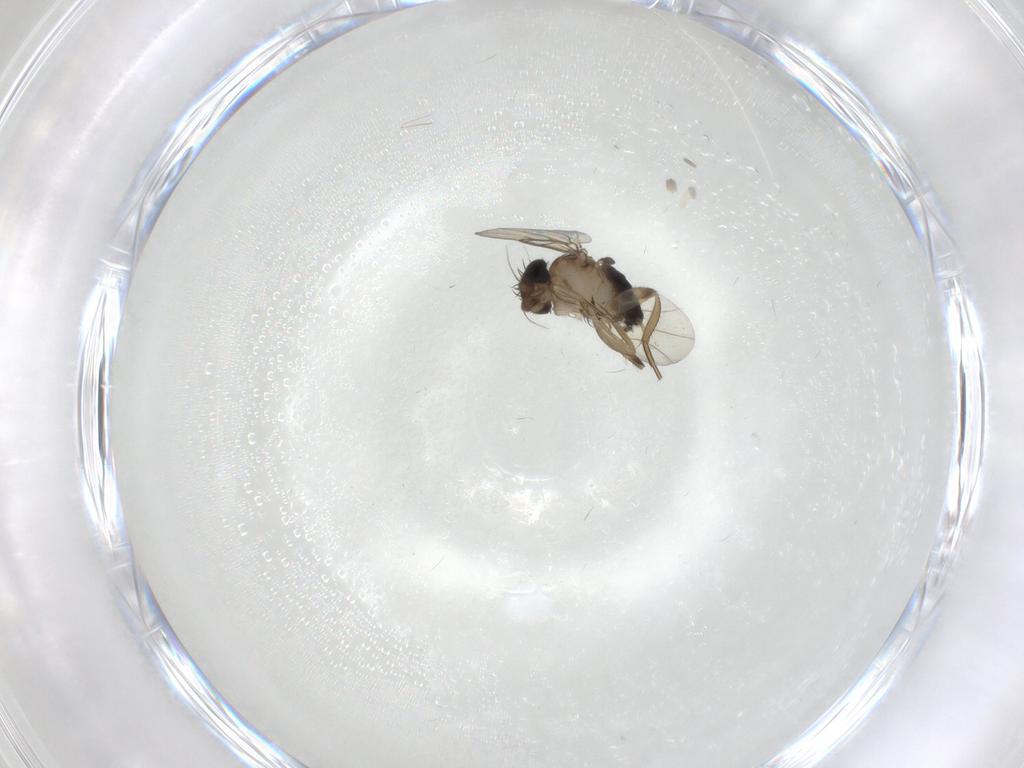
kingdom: Animalia
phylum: Arthropoda
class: Insecta
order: Diptera
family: Phoridae
